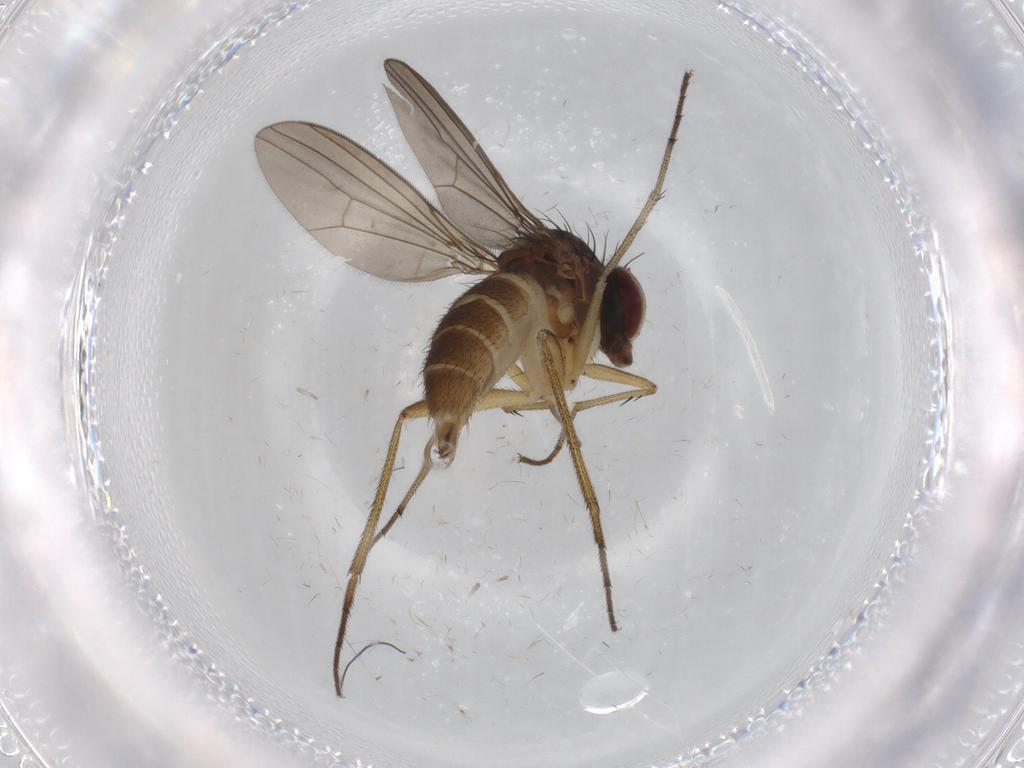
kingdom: Animalia
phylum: Arthropoda
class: Insecta
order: Diptera
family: Dolichopodidae
